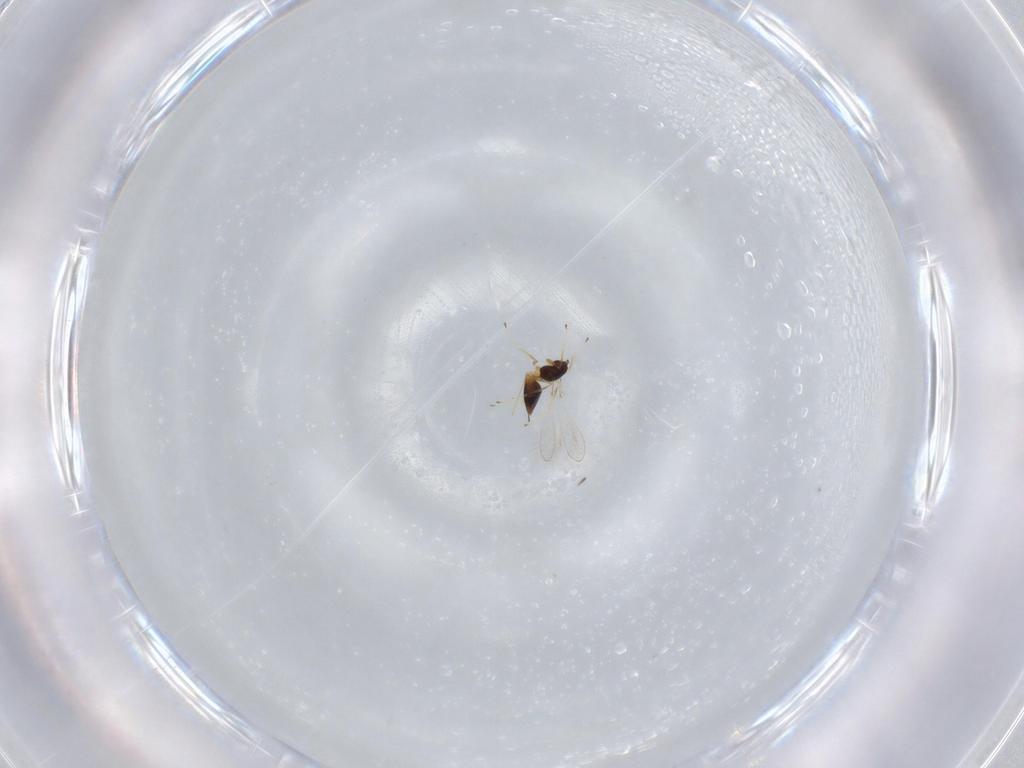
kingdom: Animalia
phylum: Arthropoda
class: Insecta
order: Hymenoptera
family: Mymaridae
